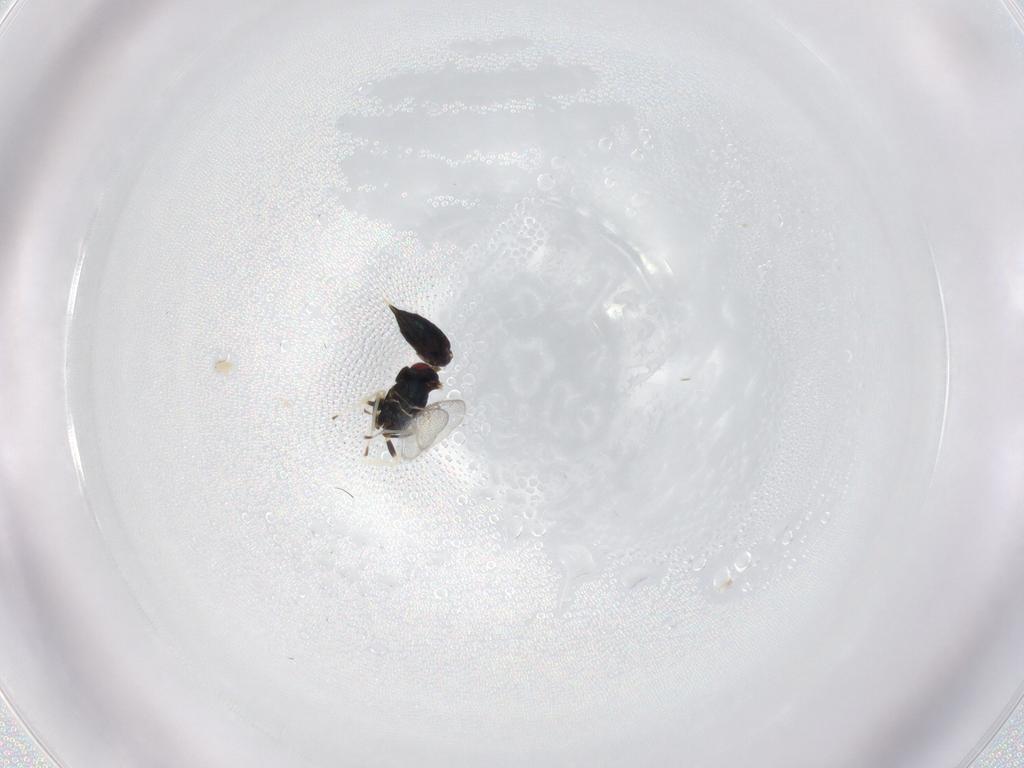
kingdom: Animalia
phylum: Arthropoda
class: Insecta
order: Hymenoptera
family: Eulophidae
